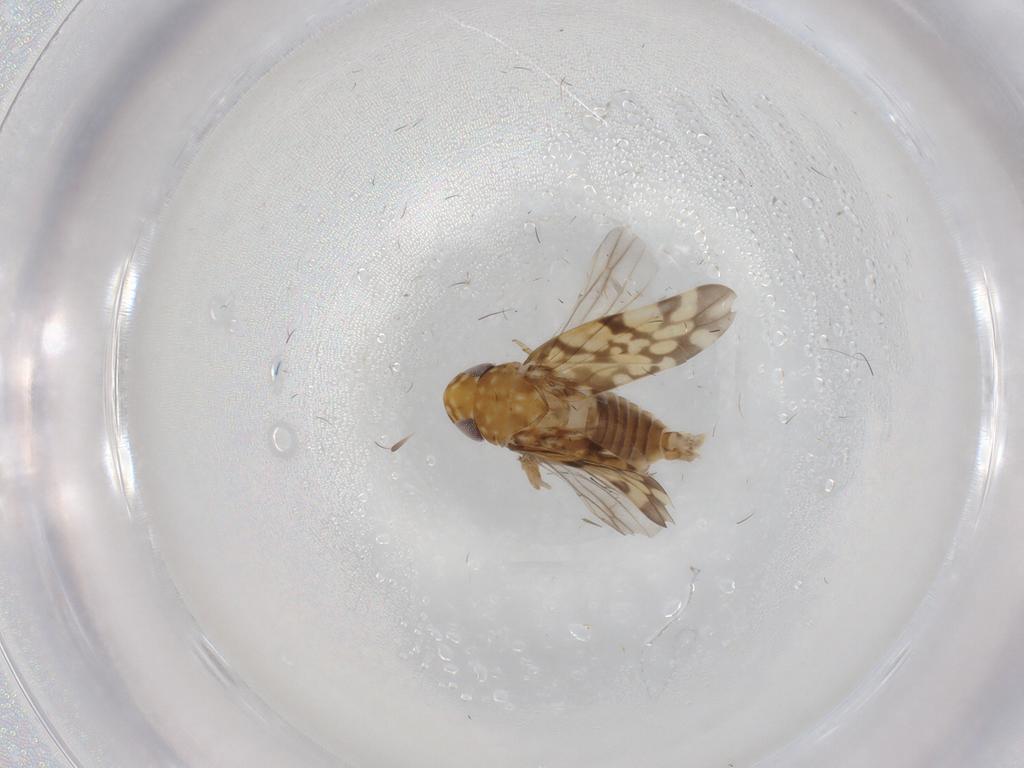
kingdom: Animalia
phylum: Arthropoda
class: Insecta
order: Hemiptera
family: Cicadellidae
